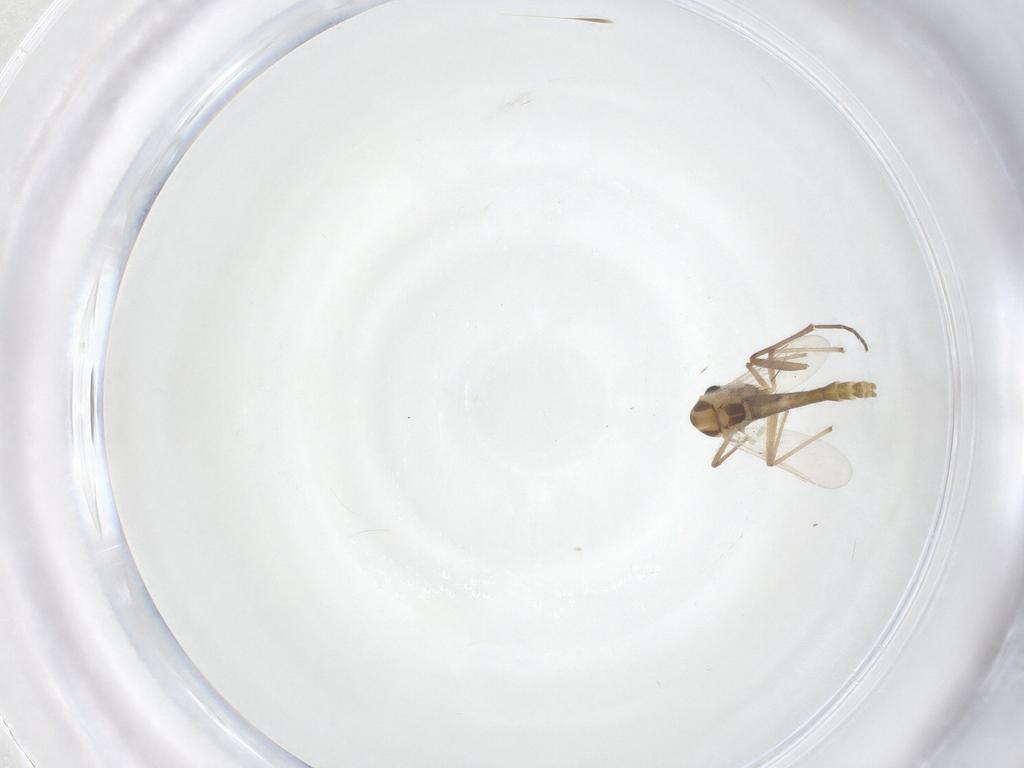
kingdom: Animalia
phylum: Arthropoda
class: Insecta
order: Diptera
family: Chironomidae
